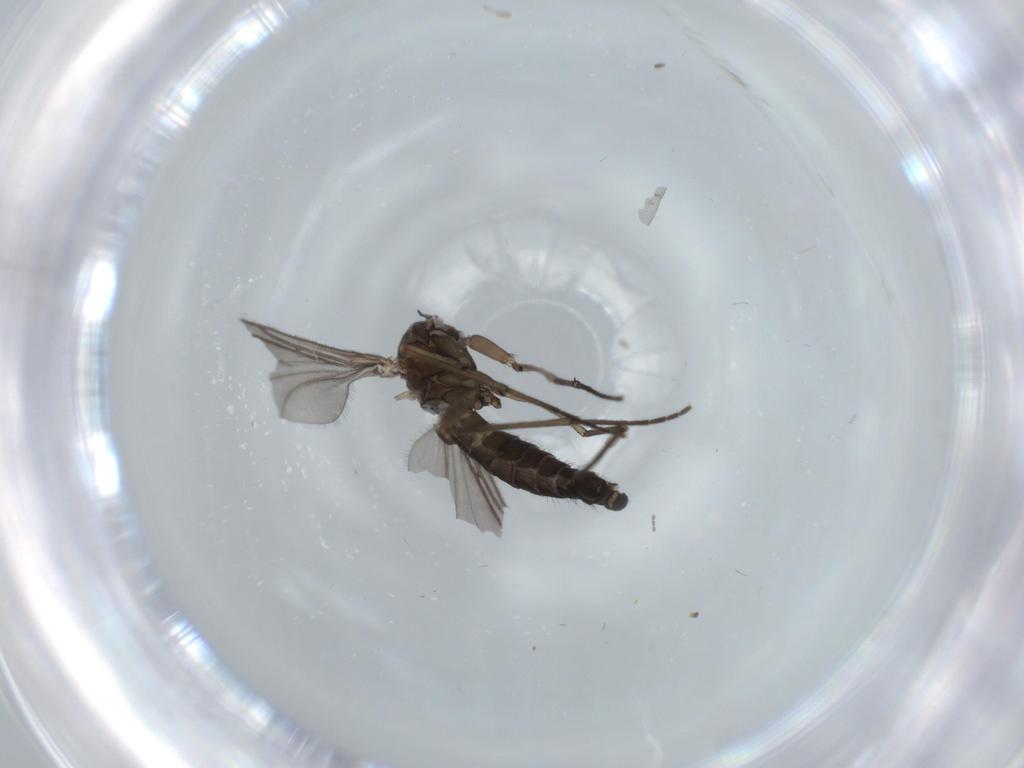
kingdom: Animalia
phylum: Arthropoda
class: Insecta
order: Diptera
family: Sciaridae
